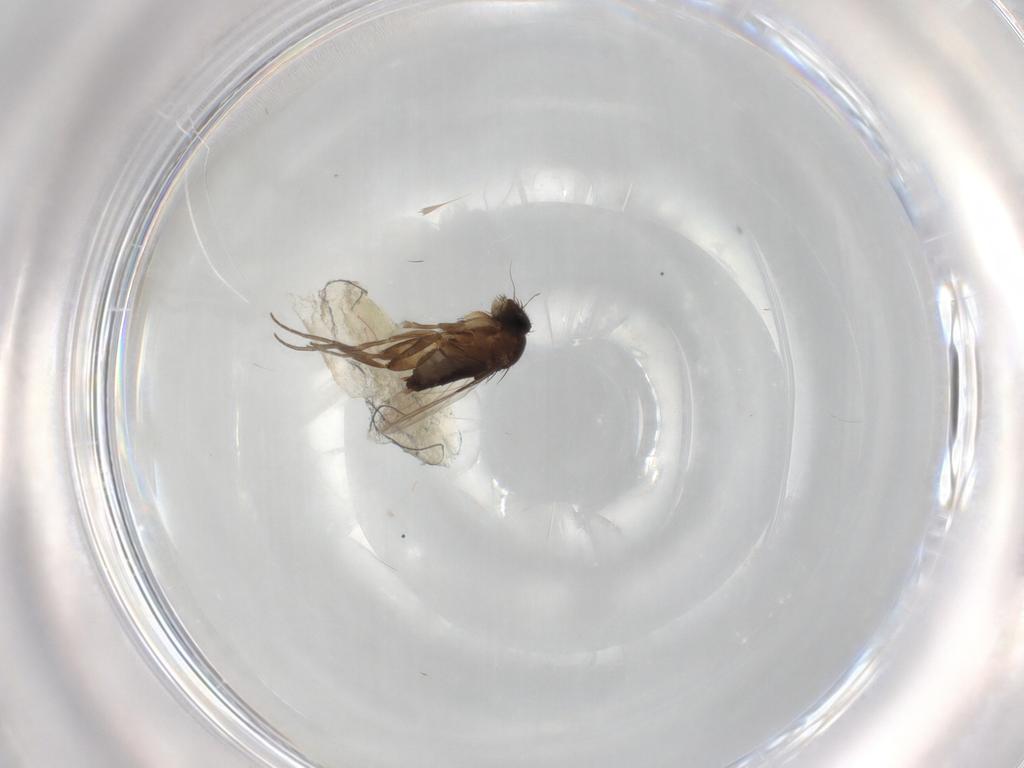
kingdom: Animalia
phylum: Arthropoda
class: Insecta
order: Diptera
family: Phoridae
